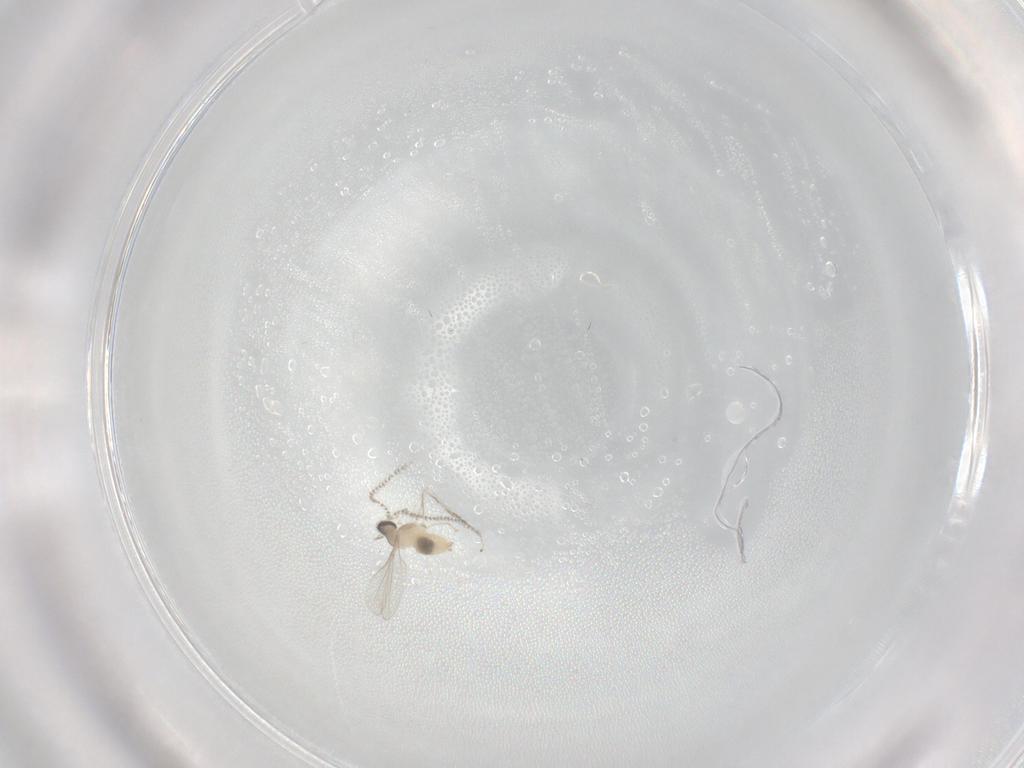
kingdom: Animalia
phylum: Arthropoda
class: Insecta
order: Diptera
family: Cecidomyiidae
